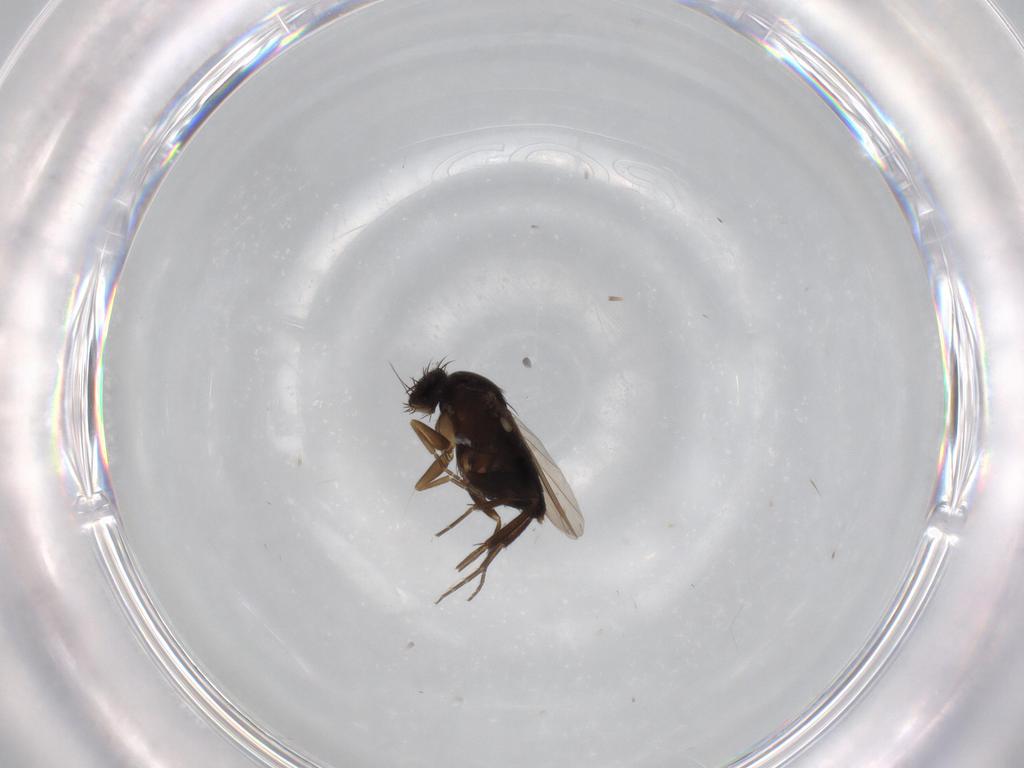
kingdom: Animalia
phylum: Arthropoda
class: Insecta
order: Diptera
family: Phoridae
